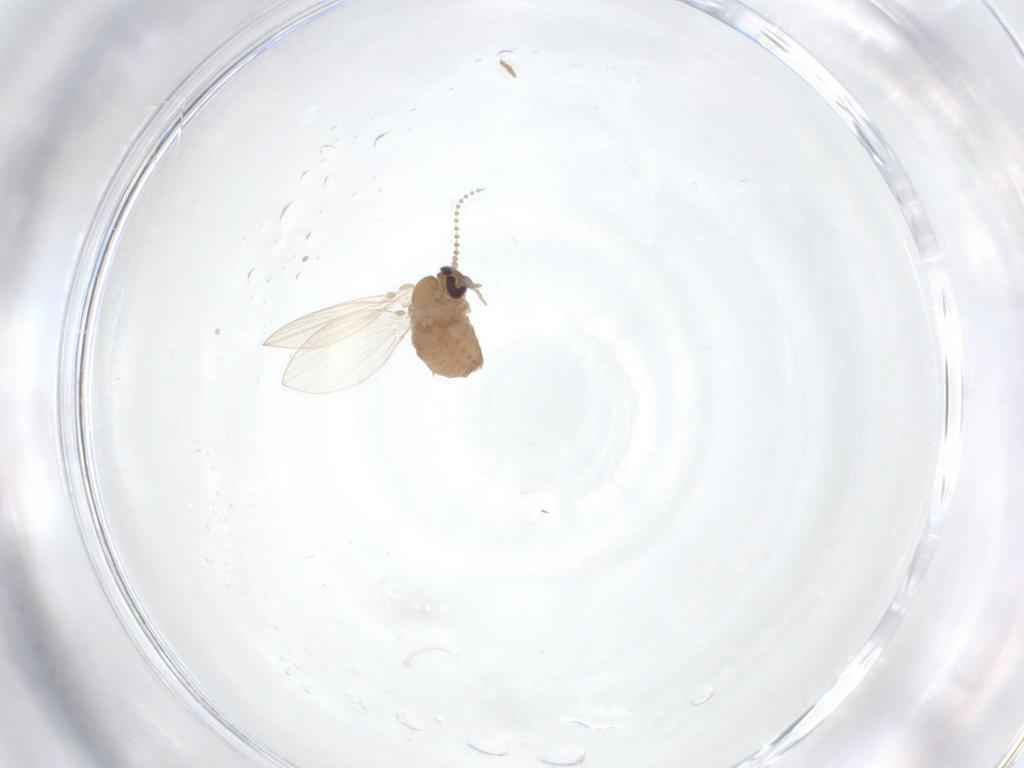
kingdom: Animalia
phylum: Arthropoda
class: Insecta
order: Diptera
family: Psychodidae
